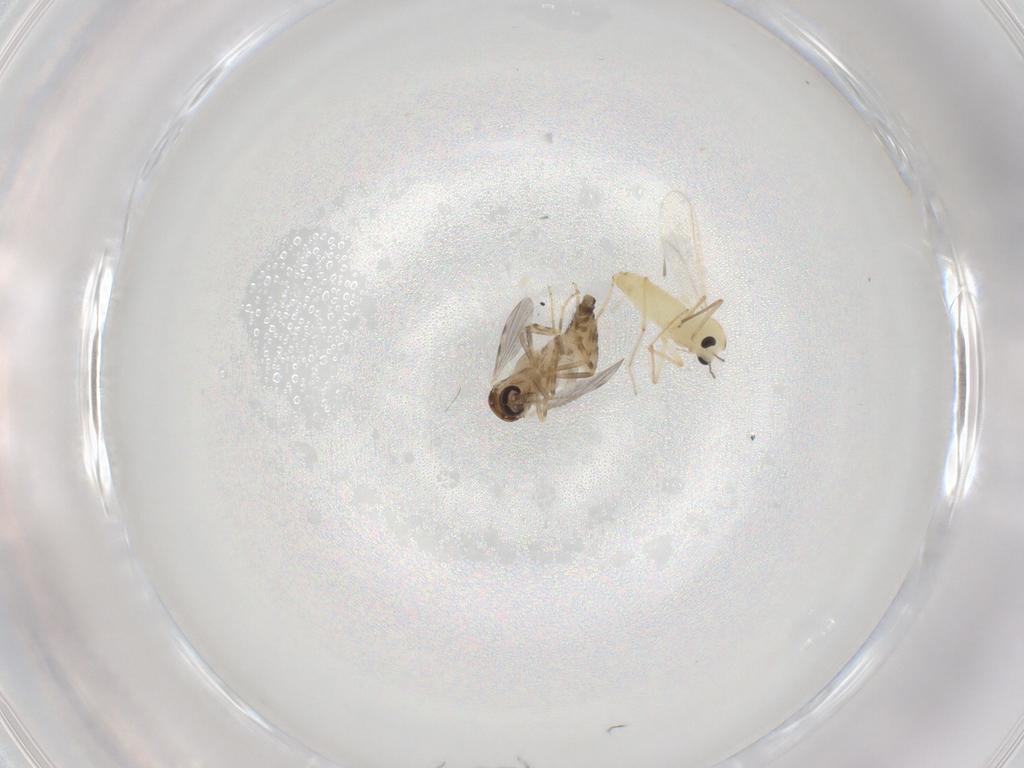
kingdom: Animalia
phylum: Arthropoda
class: Insecta
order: Diptera
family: Ceratopogonidae
